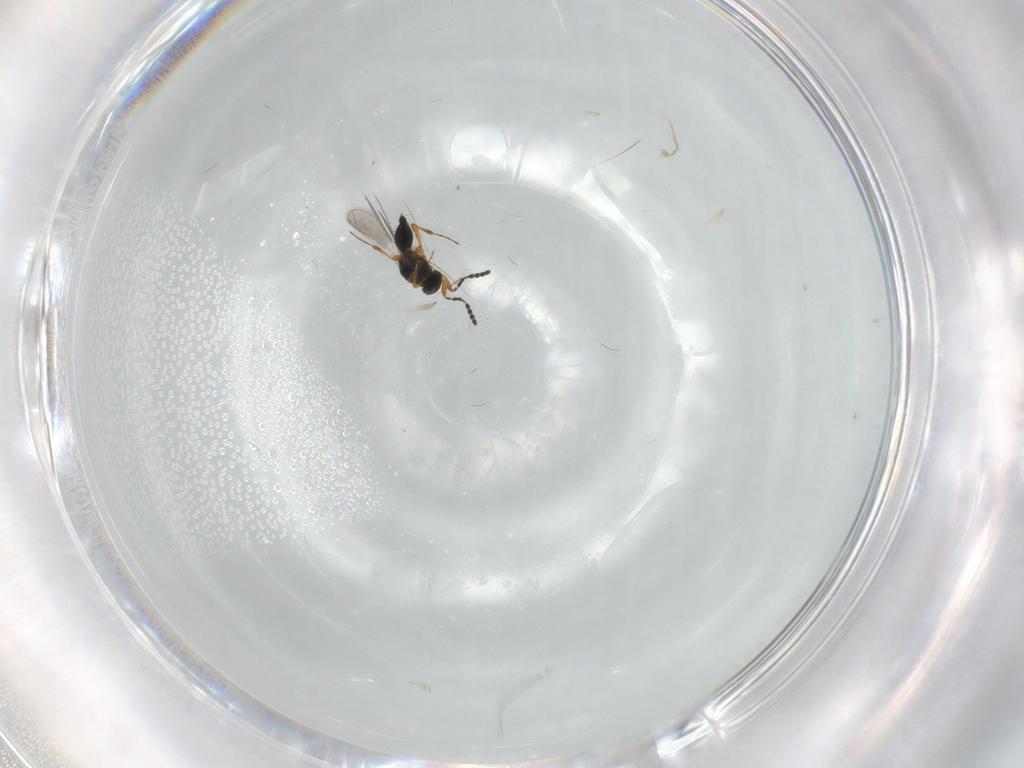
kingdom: Animalia
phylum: Arthropoda
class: Insecta
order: Hymenoptera
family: Platygastridae
